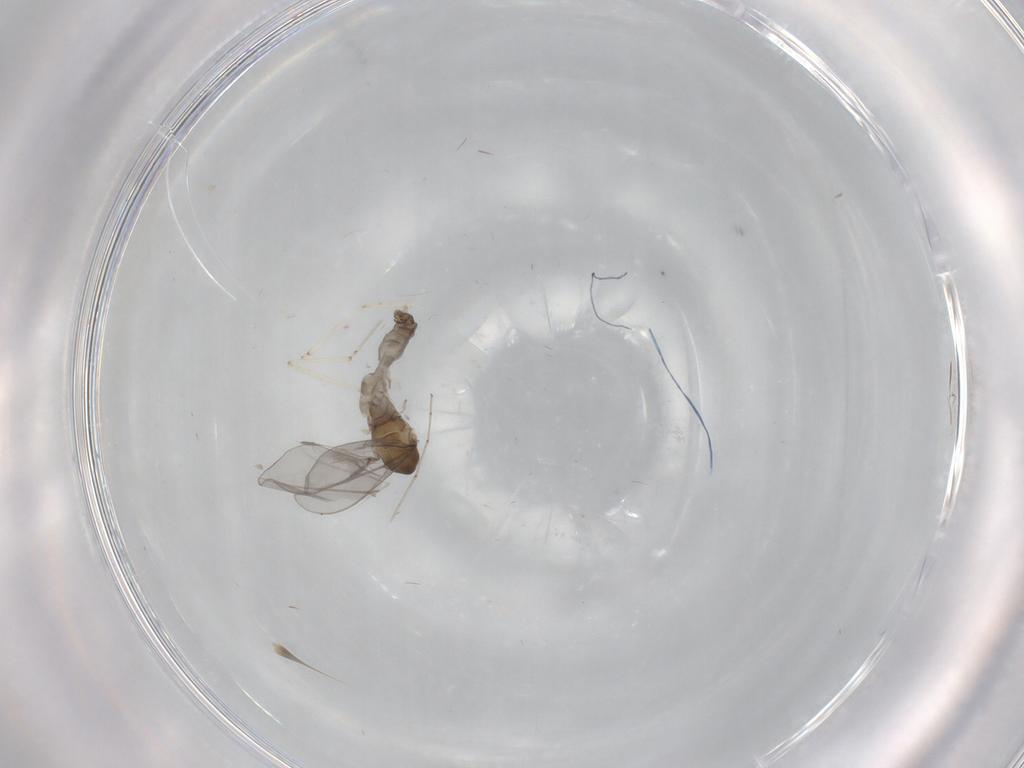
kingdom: Animalia
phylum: Arthropoda
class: Insecta
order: Diptera
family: Cecidomyiidae
